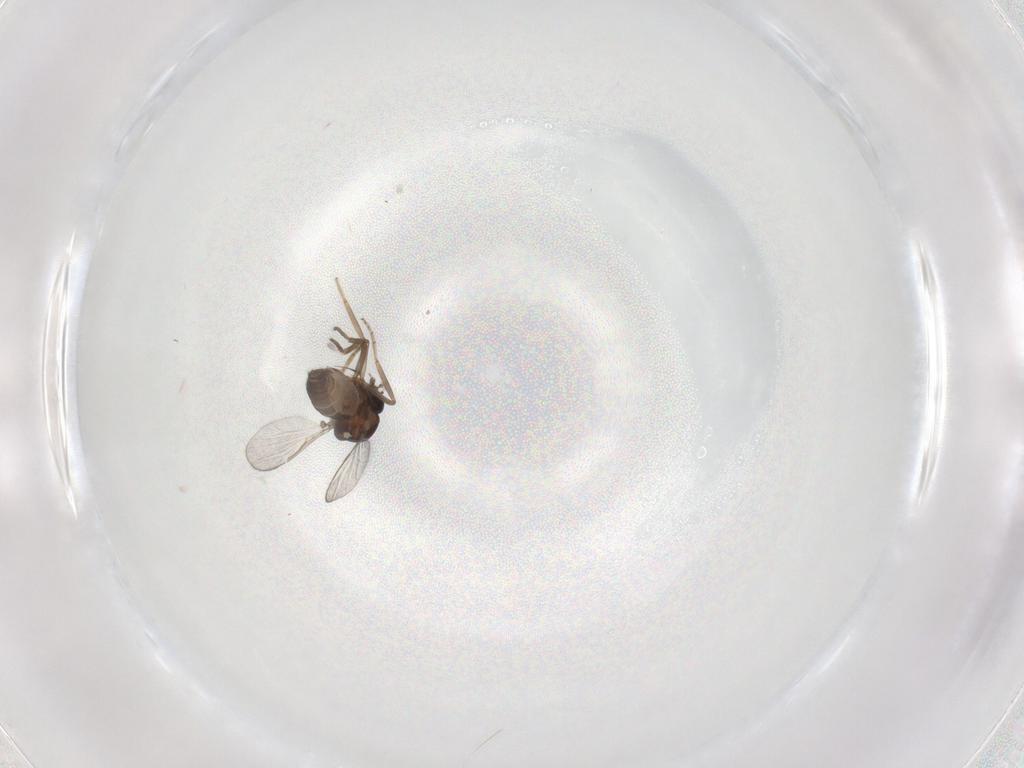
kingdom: Animalia
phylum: Arthropoda
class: Insecta
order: Diptera
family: Ceratopogonidae
